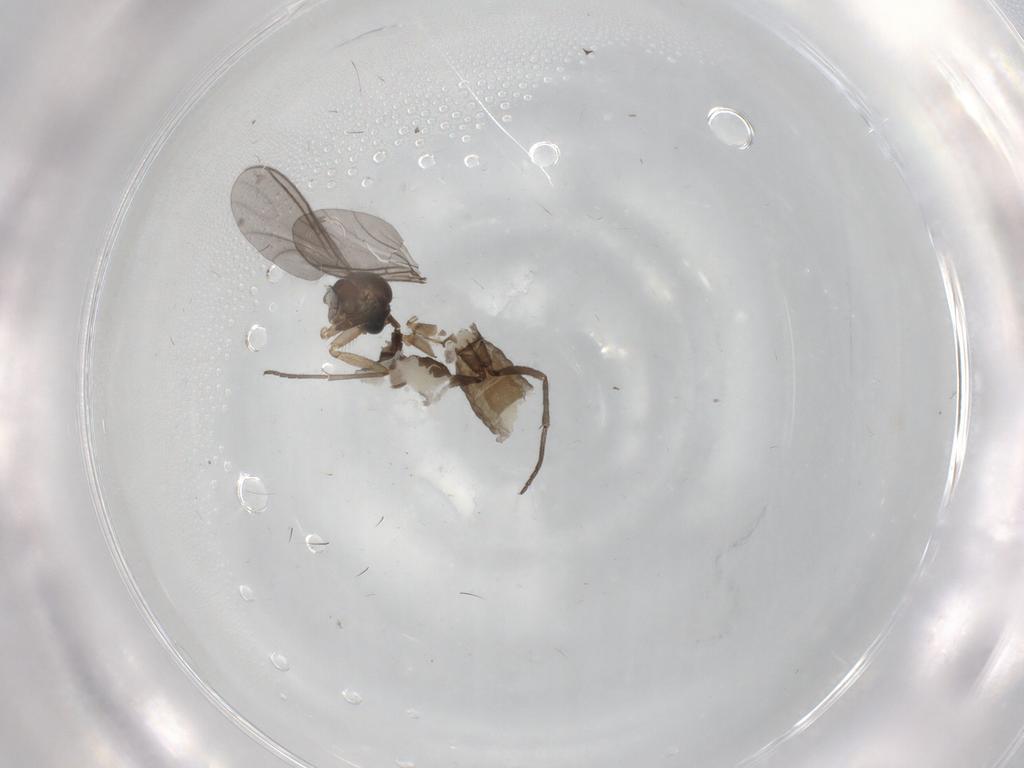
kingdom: Animalia
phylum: Arthropoda
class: Insecta
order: Diptera
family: Sciaridae
